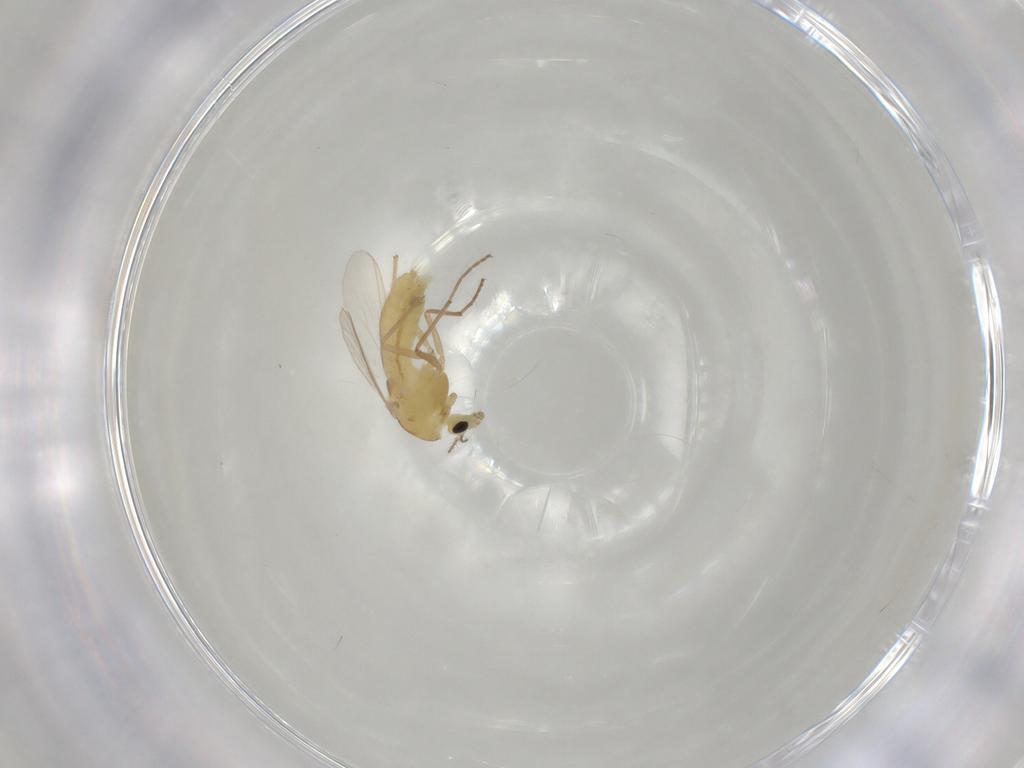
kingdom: Animalia
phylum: Arthropoda
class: Insecta
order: Diptera
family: Chironomidae
